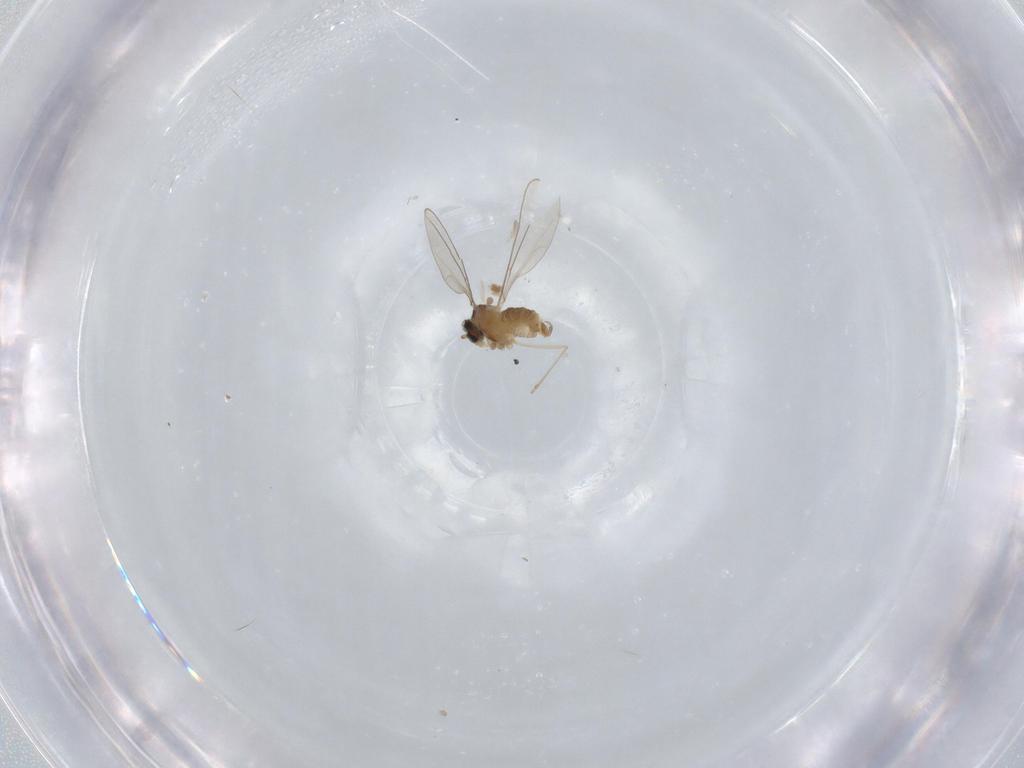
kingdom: Animalia
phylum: Arthropoda
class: Insecta
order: Diptera
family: Cecidomyiidae
